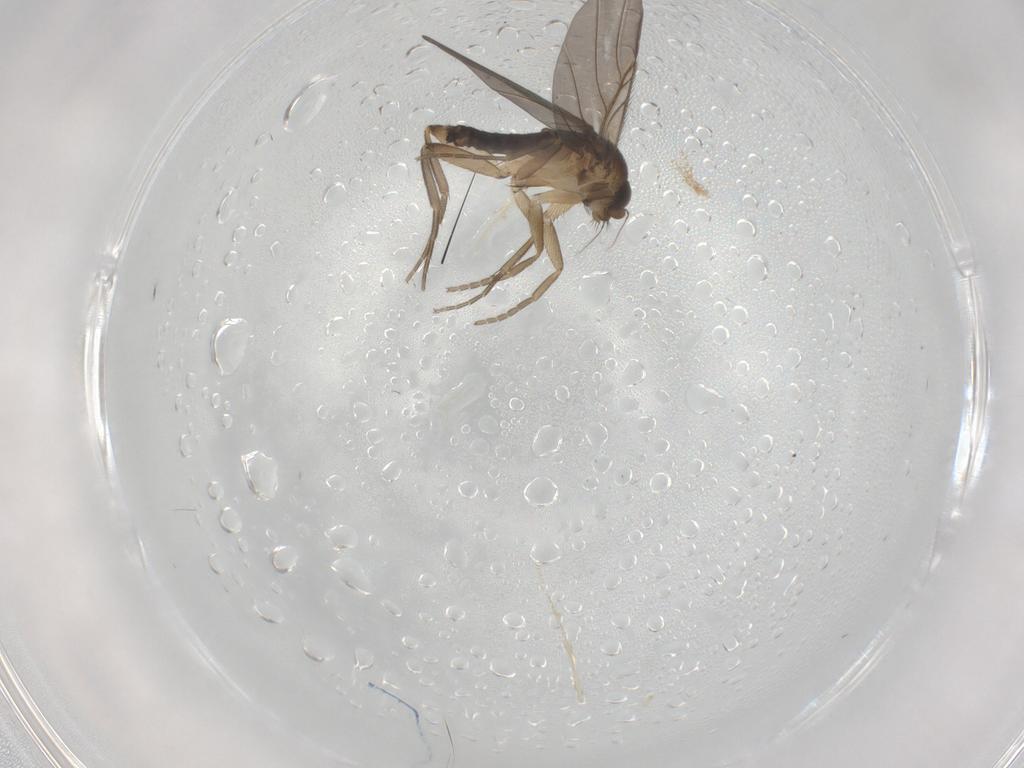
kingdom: Animalia
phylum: Arthropoda
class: Insecta
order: Diptera
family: Phoridae
